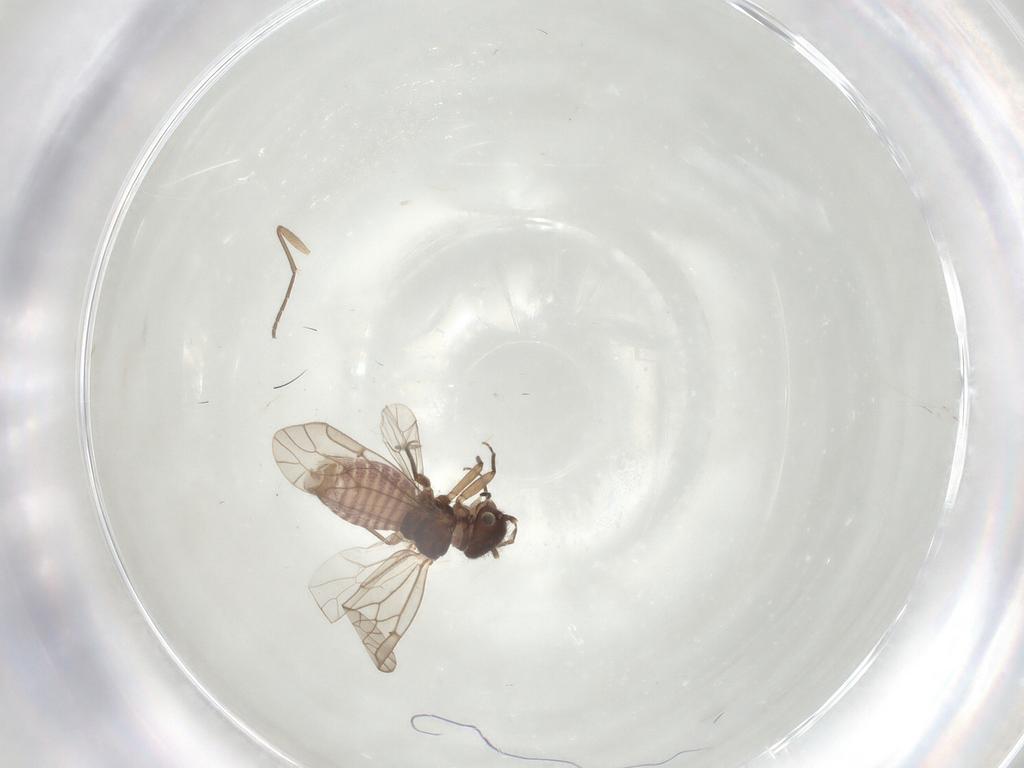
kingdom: Animalia
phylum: Arthropoda
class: Insecta
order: Psocodea
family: Ectopsocidae
